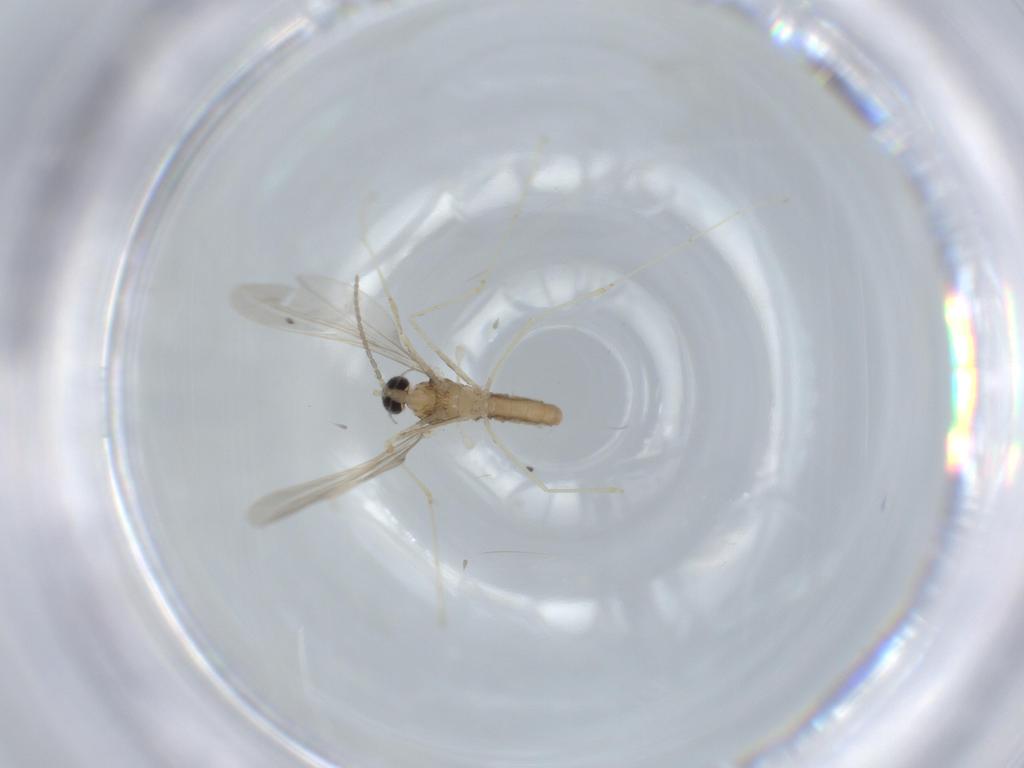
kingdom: Animalia
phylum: Arthropoda
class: Insecta
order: Diptera
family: Cecidomyiidae
